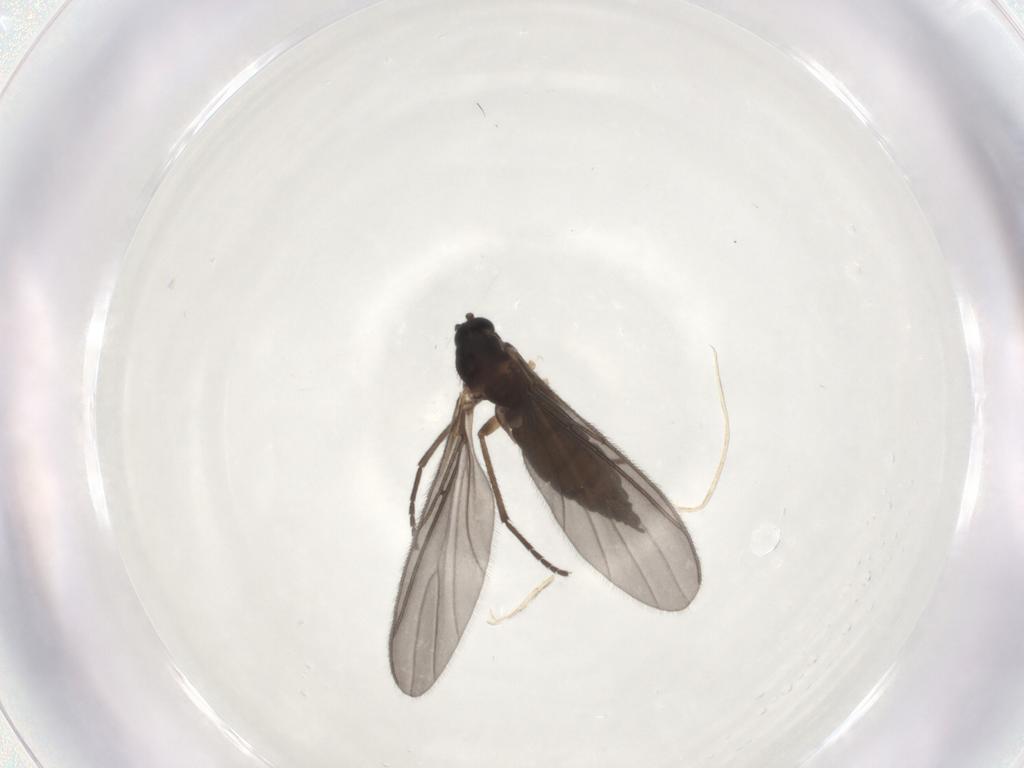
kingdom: Animalia
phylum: Arthropoda
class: Insecta
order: Diptera
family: Sciaridae
